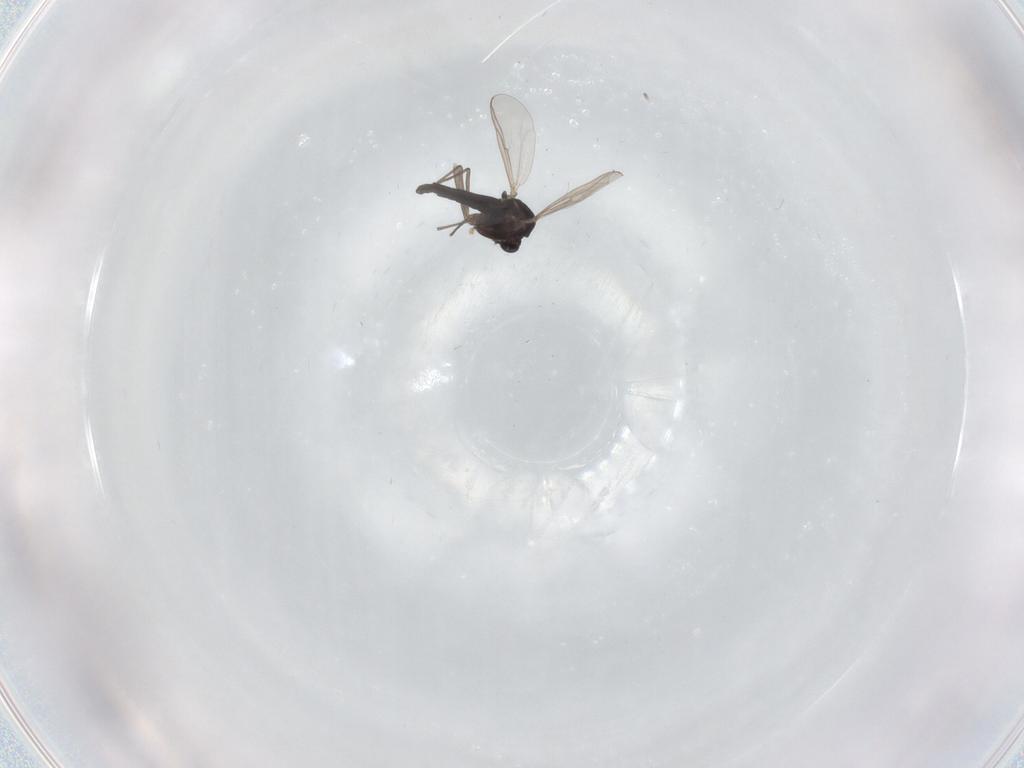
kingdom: Animalia
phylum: Arthropoda
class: Insecta
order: Diptera
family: Chironomidae
